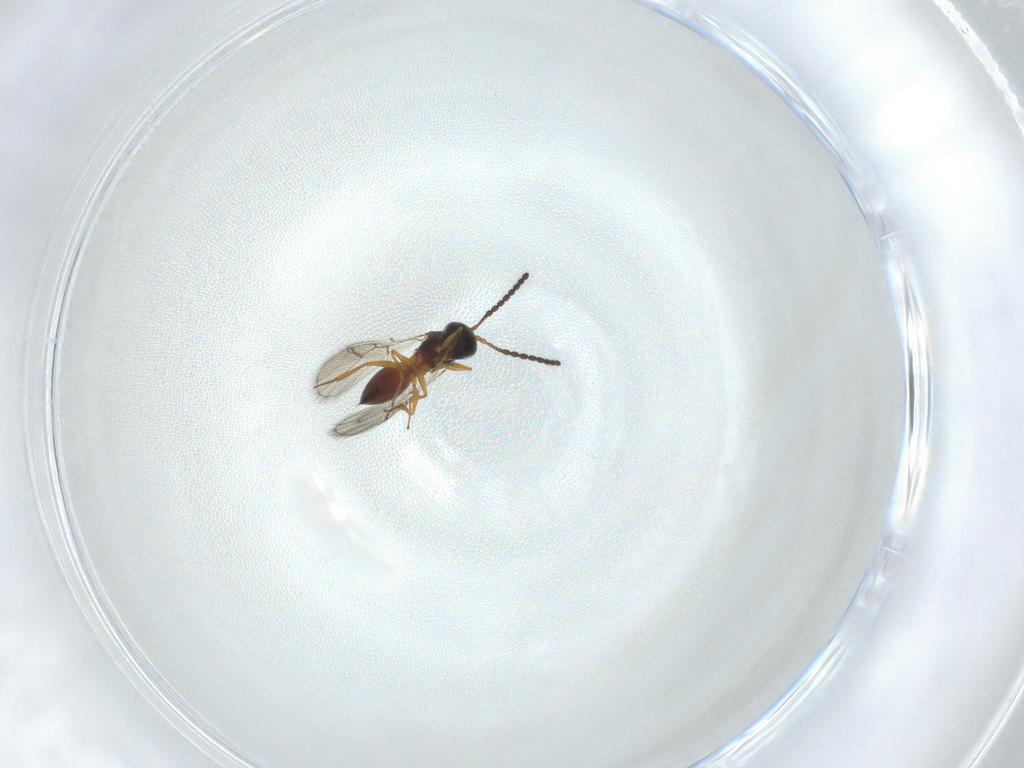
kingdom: Animalia
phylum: Arthropoda
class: Insecta
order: Hymenoptera
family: Figitidae
